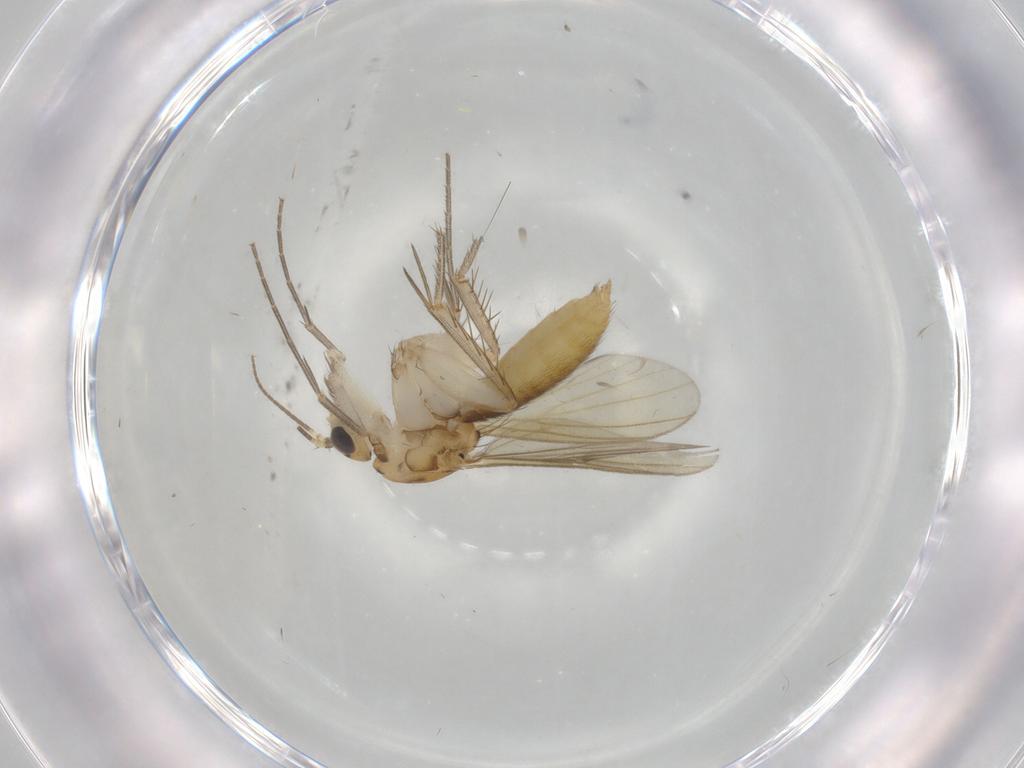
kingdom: Animalia
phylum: Arthropoda
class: Insecta
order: Diptera
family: Mycetophilidae
